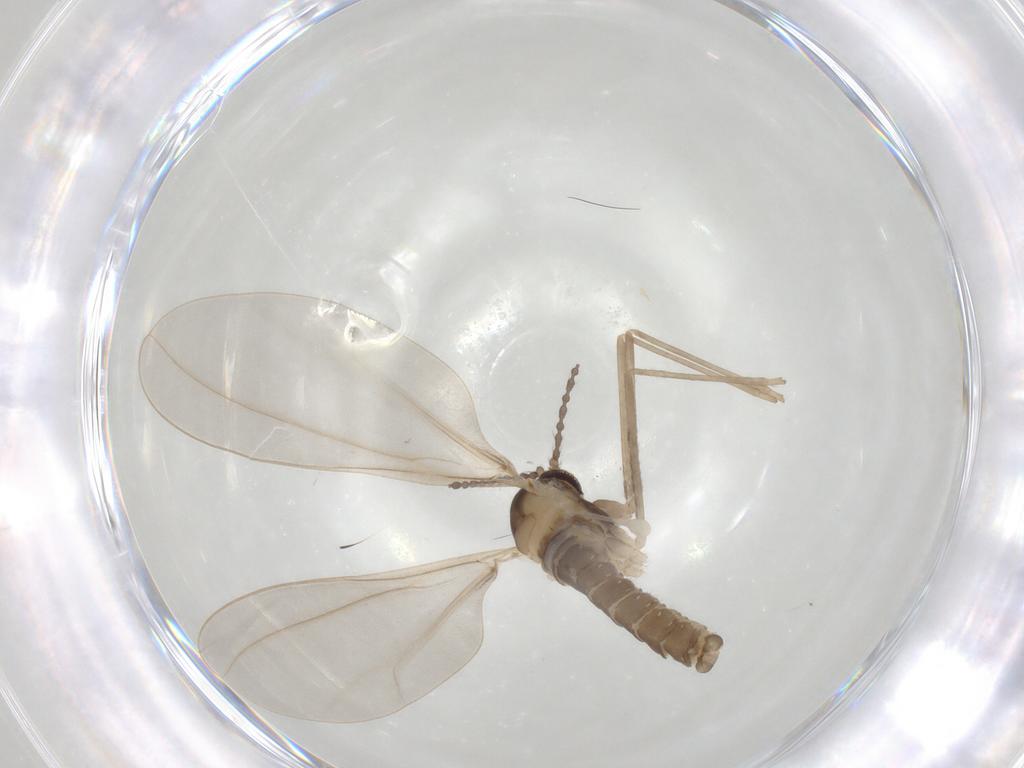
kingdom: Animalia
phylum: Arthropoda
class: Insecta
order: Diptera
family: Cecidomyiidae
